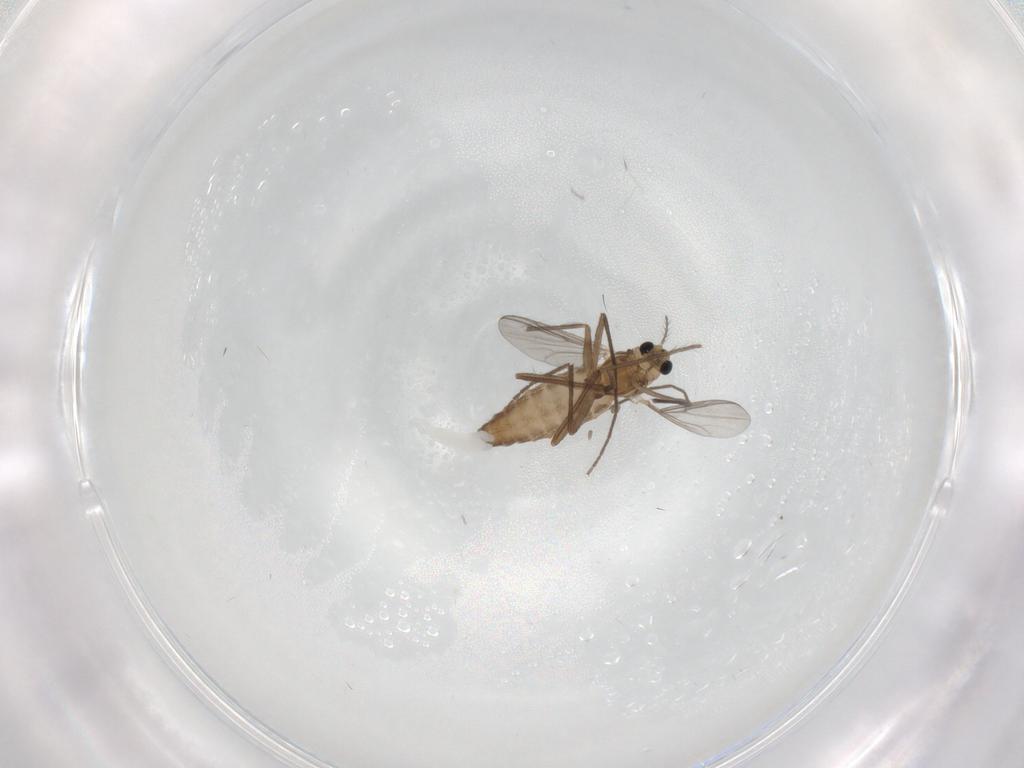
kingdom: Animalia
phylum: Arthropoda
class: Insecta
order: Diptera
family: Chironomidae
